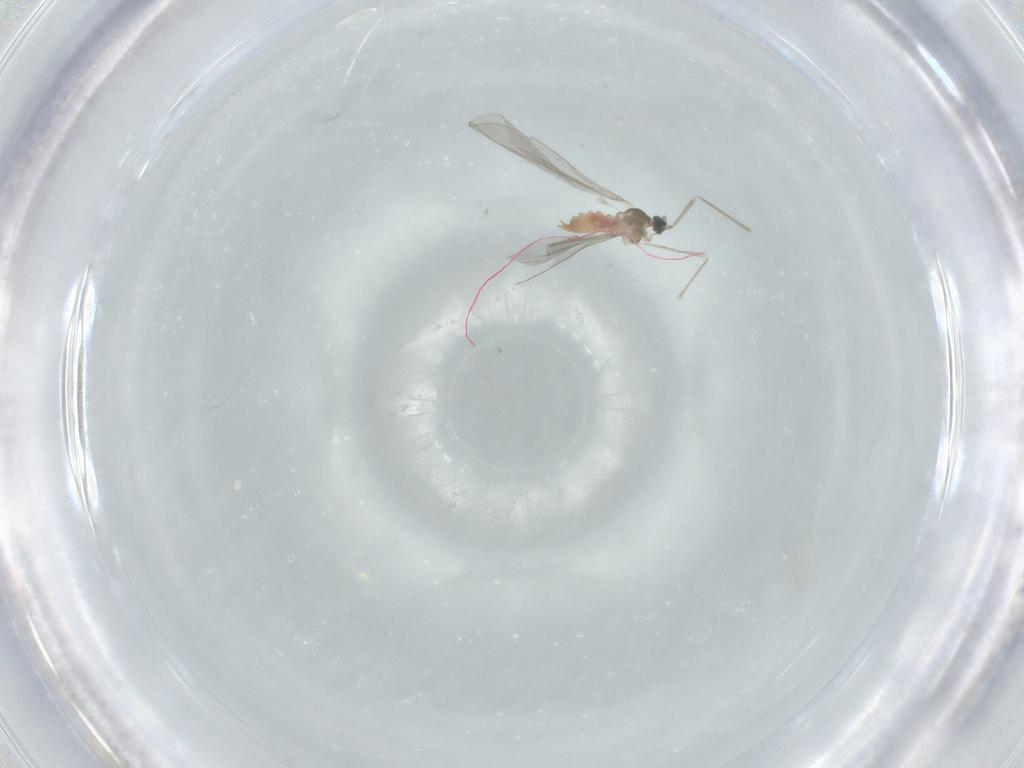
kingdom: Animalia
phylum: Arthropoda
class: Insecta
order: Diptera
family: Cecidomyiidae
